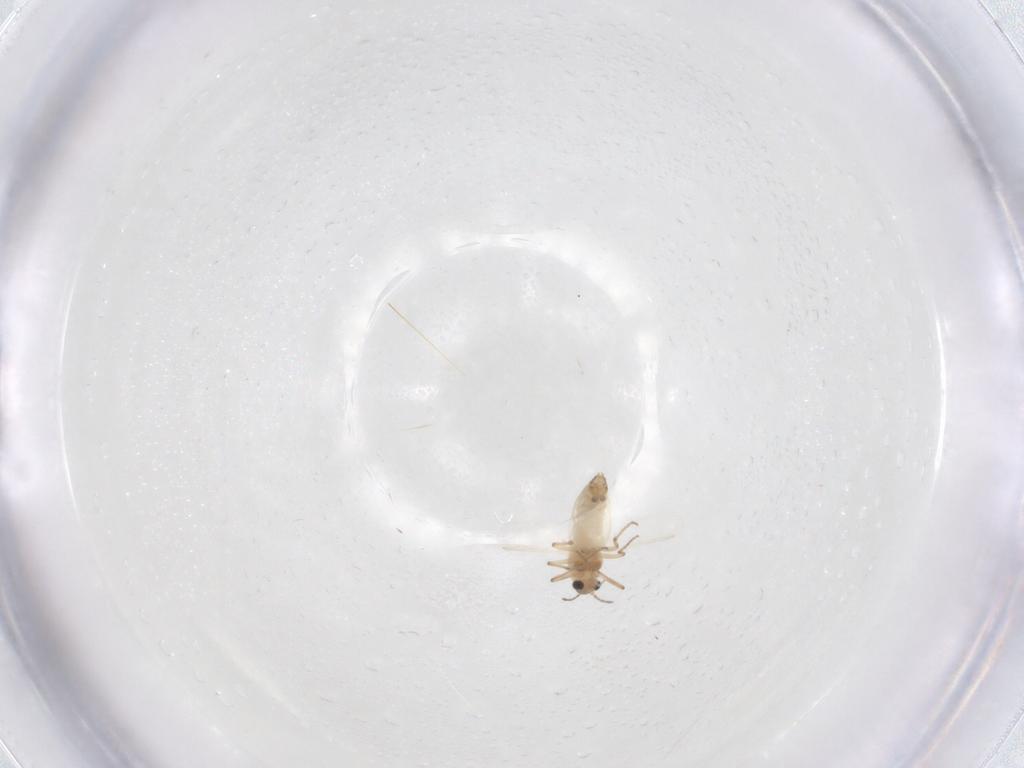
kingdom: Animalia
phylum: Arthropoda
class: Insecta
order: Diptera
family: Chironomidae
